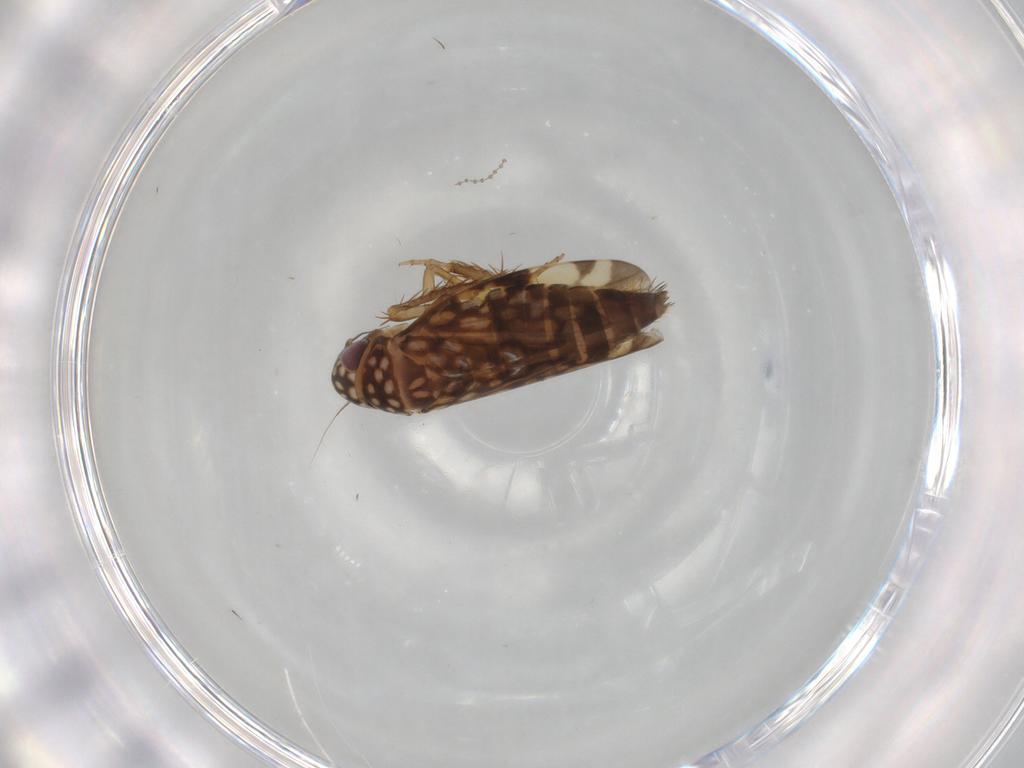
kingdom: Animalia
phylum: Arthropoda
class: Insecta
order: Hemiptera
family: Cicadellidae
